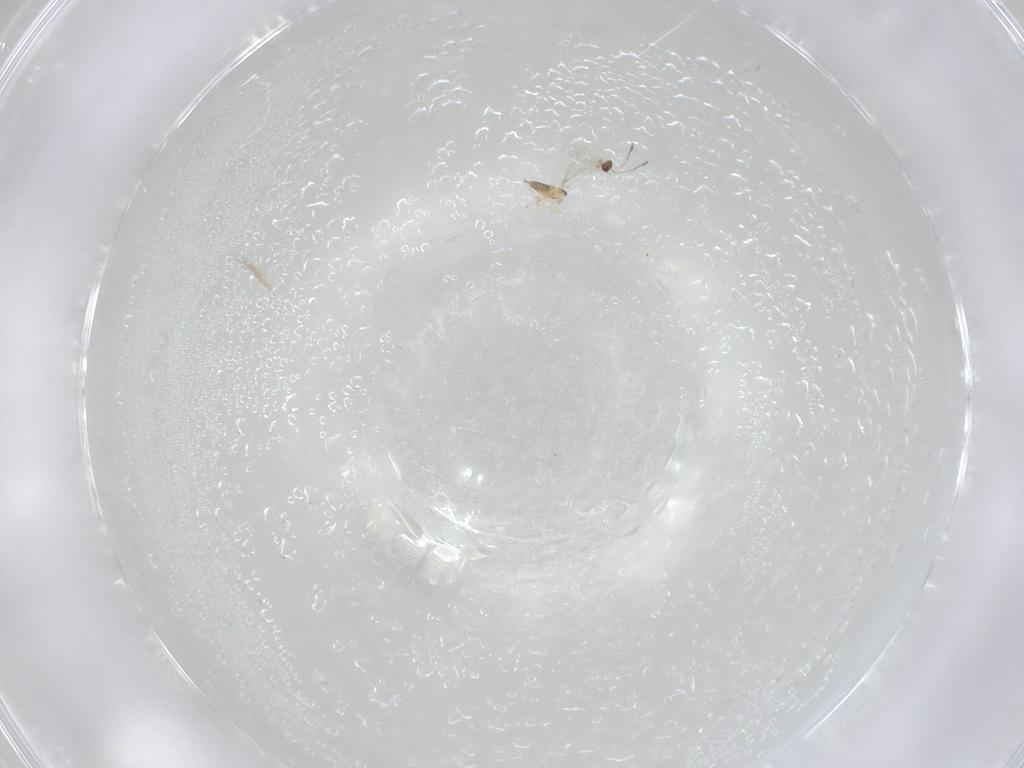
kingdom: Animalia
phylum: Arthropoda
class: Insecta
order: Hymenoptera
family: Mymaridae
